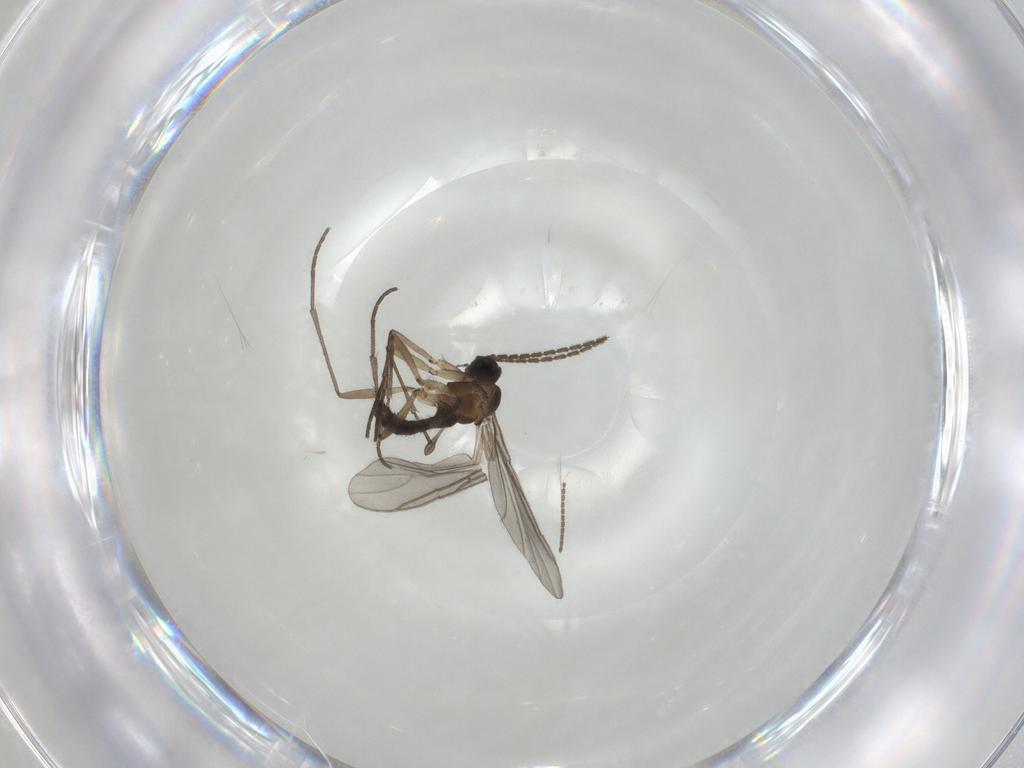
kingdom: Animalia
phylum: Arthropoda
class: Insecta
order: Diptera
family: Sciaridae
